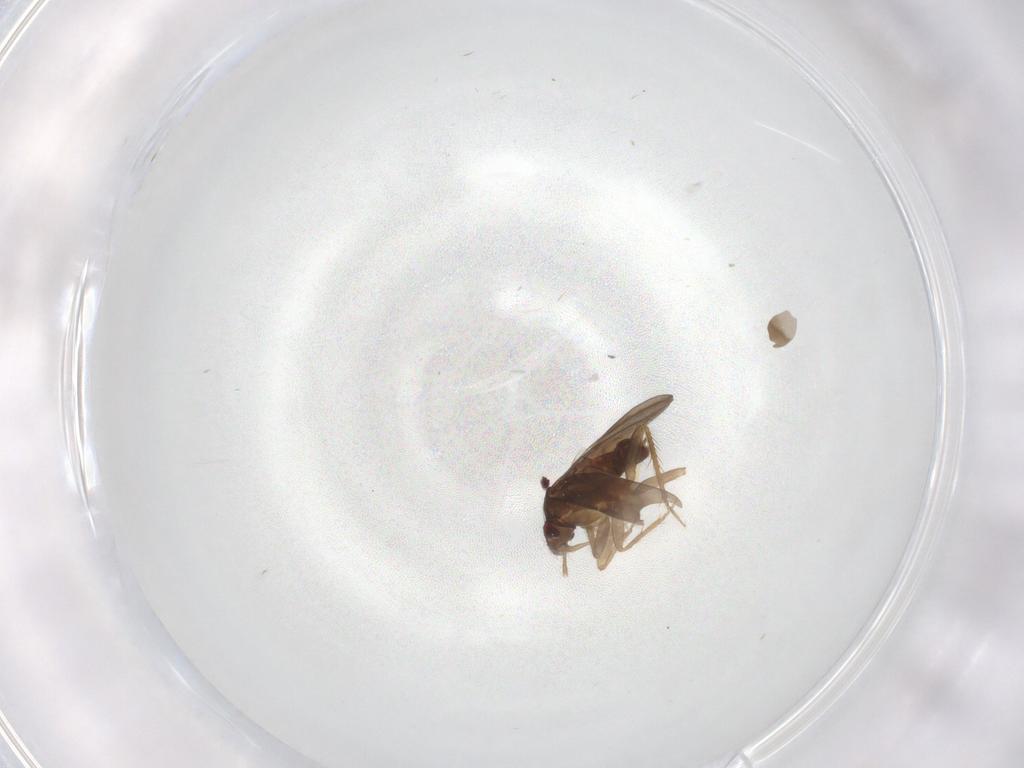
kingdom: Animalia
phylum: Arthropoda
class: Insecta
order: Hemiptera
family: Ceratocombidae
